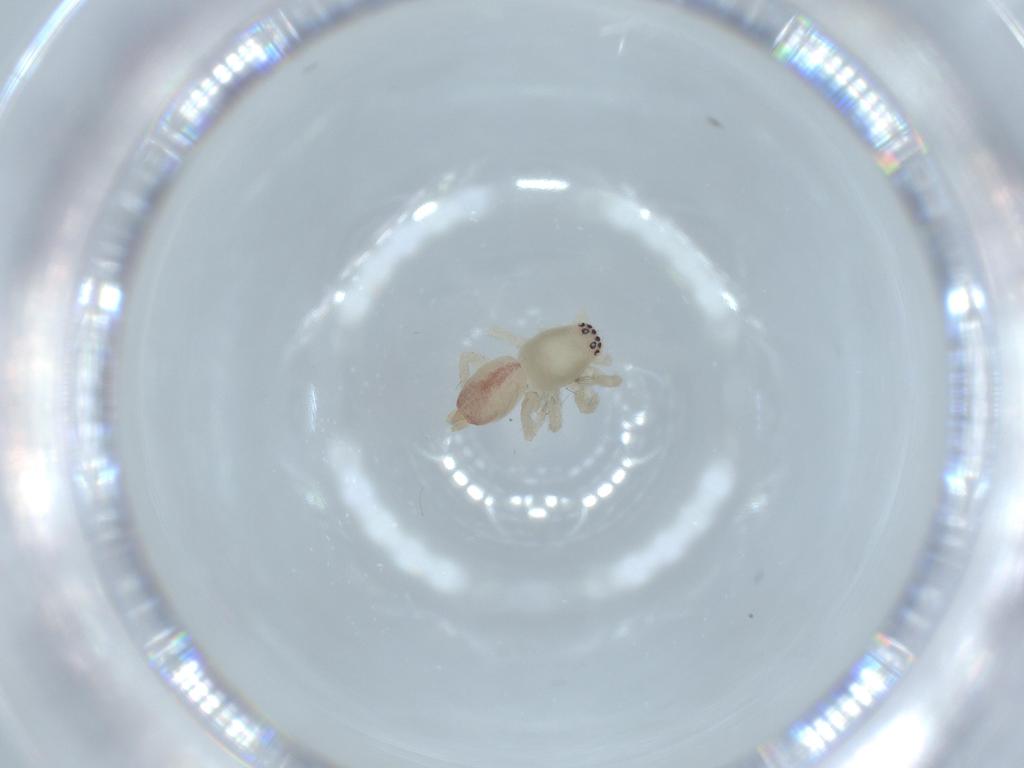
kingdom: Animalia
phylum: Arthropoda
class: Arachnida
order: Araneae
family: Clubionidae
